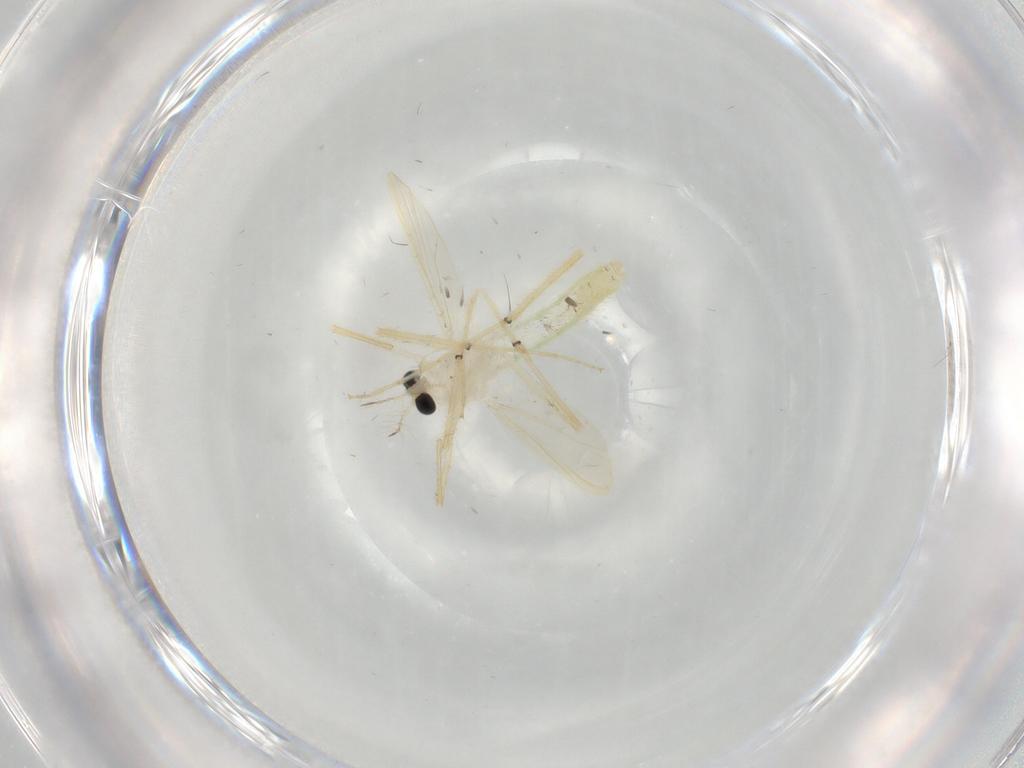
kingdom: Animalia
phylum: Arthropoda
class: Insecta
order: Diptera
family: Chironomidae
